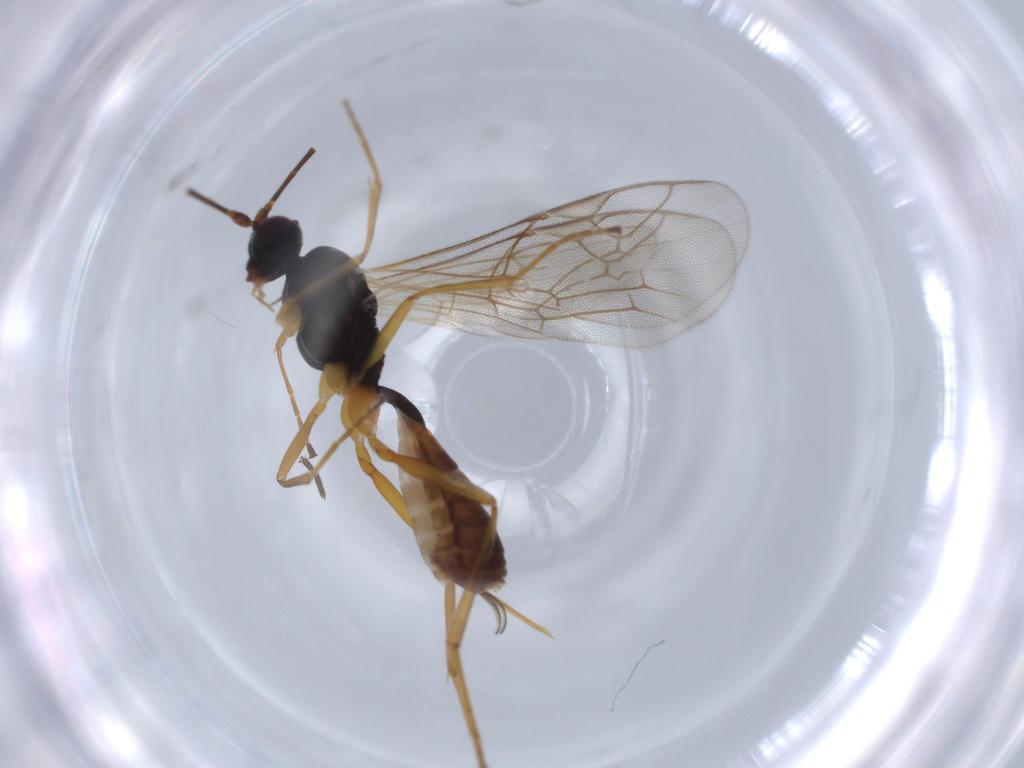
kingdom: Animalia
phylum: Arthropoda
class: Insecta
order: Hymenoptera
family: Ichneumonidae
